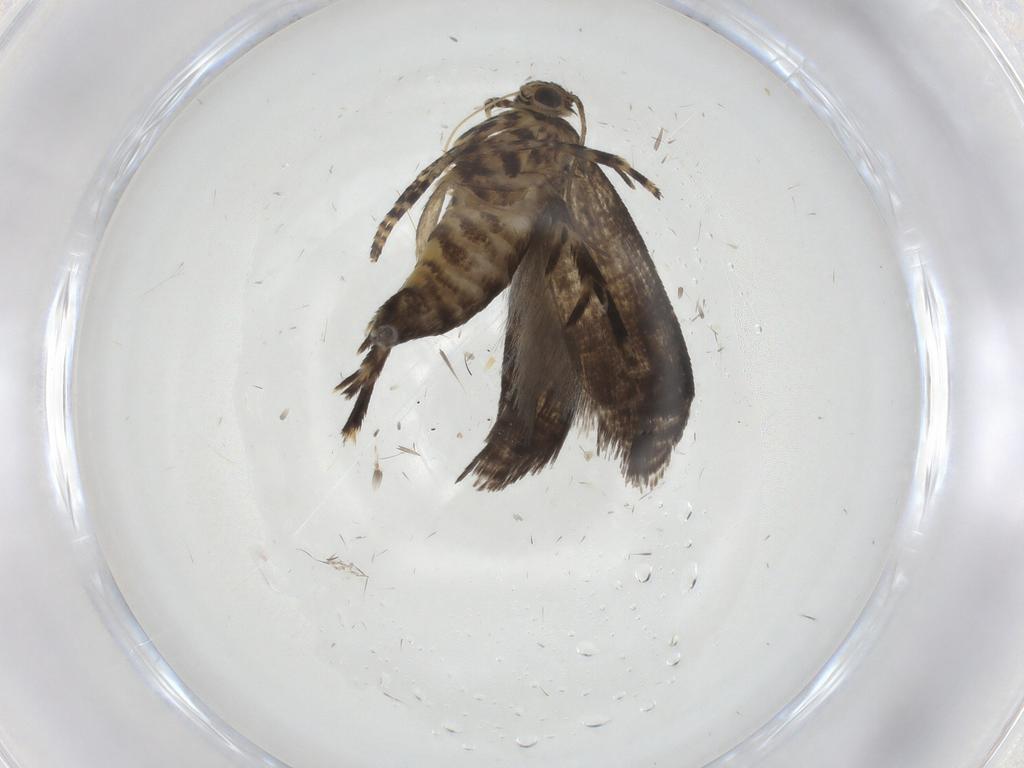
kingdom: Animalia
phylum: Arthropoda
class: Insecta
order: Lepidoptera
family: Geometridae
